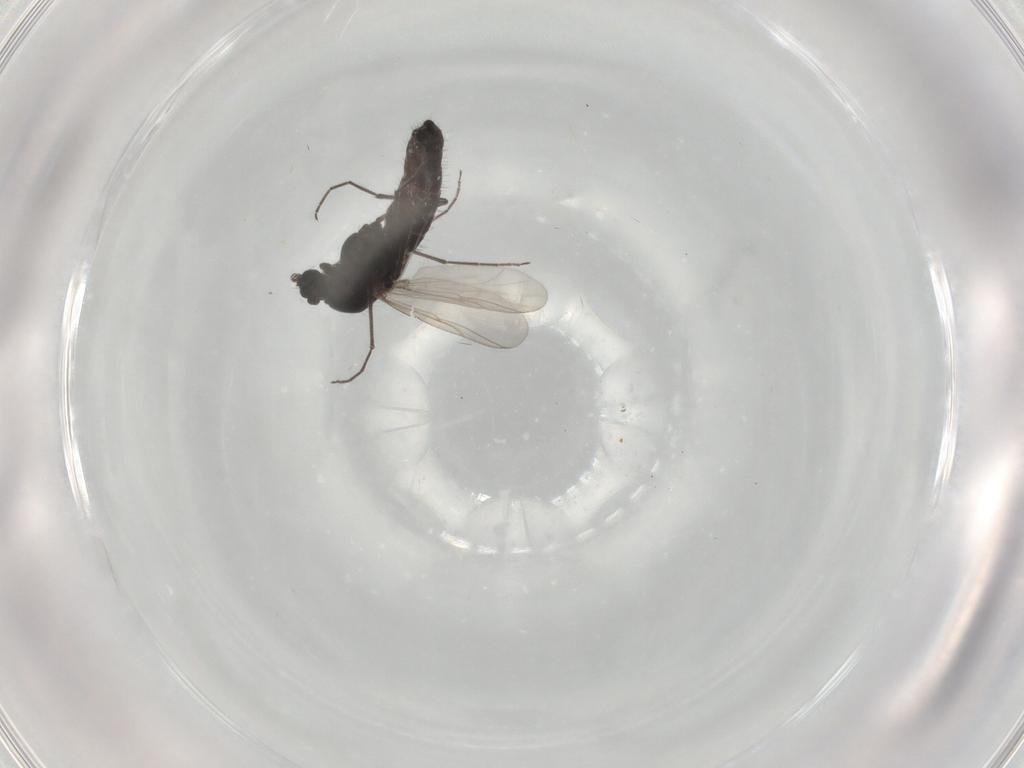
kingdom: Animalia
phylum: Arthropoda
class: Insecta
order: Diptera
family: Chironomidae
